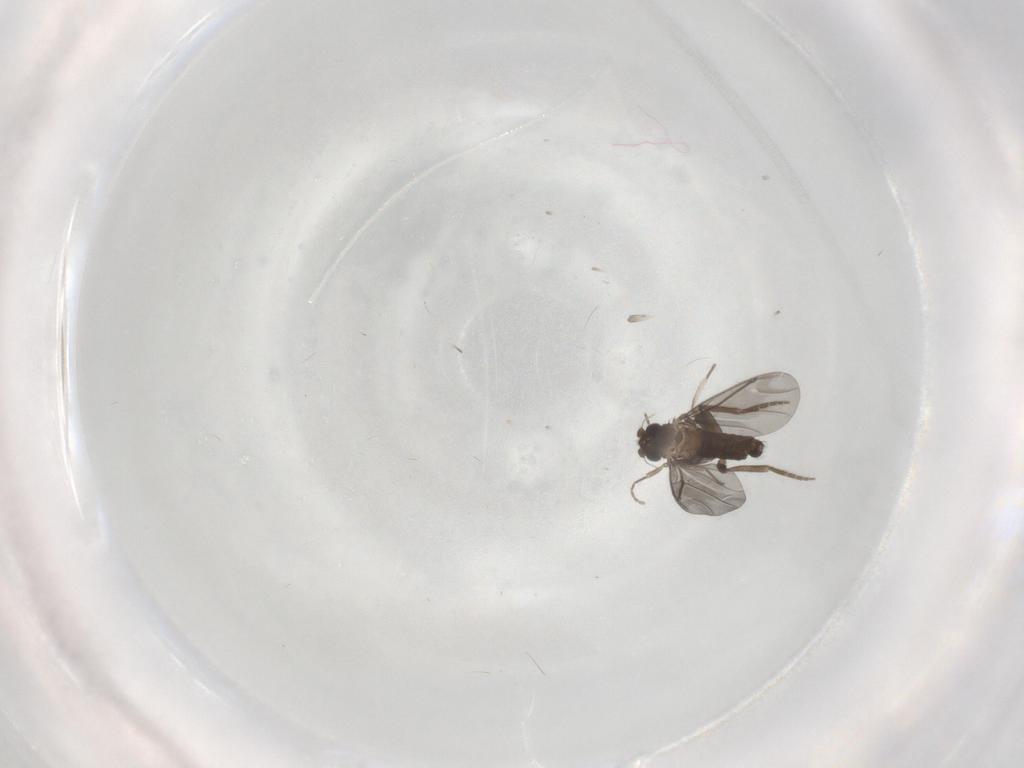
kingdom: Animalia
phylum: Arthropoda
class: Insecta
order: Diptera
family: Phoridae
